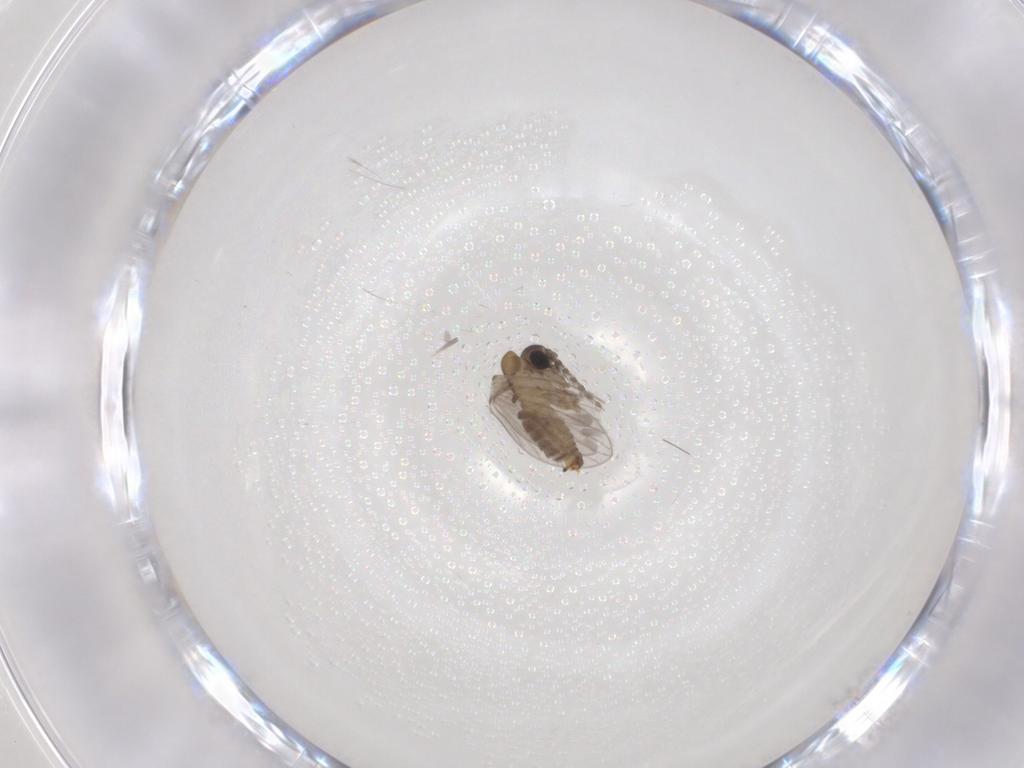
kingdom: Animalia
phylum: Arthropoda
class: Insecta
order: Diptera
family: Psychodidae
